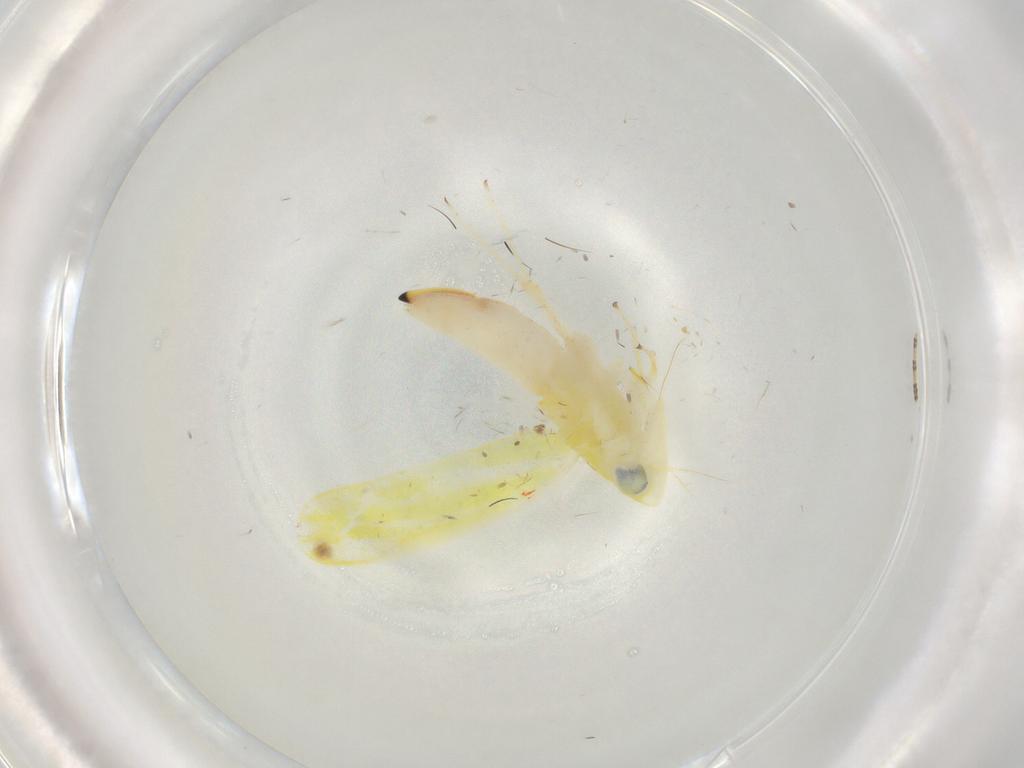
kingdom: Animalia
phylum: Arthropoda
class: Insecta
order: Hemiptera
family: Cicadellidae
